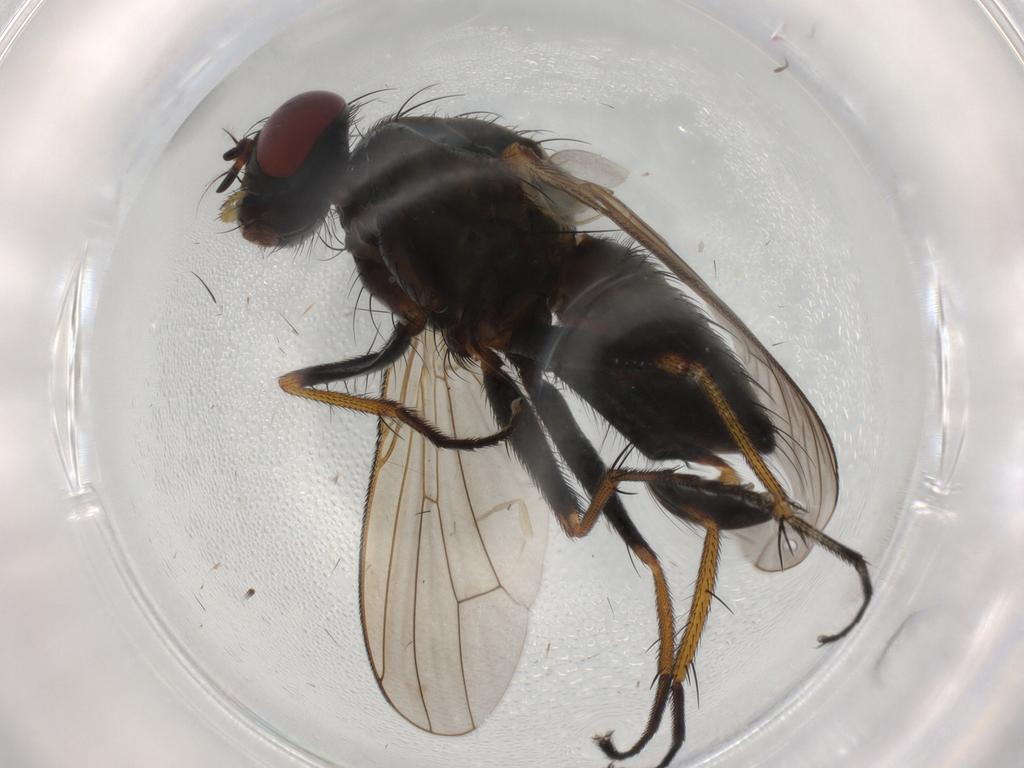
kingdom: Animalia
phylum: Arthropoda
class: Insecta
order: Diptera
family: Muscidae
